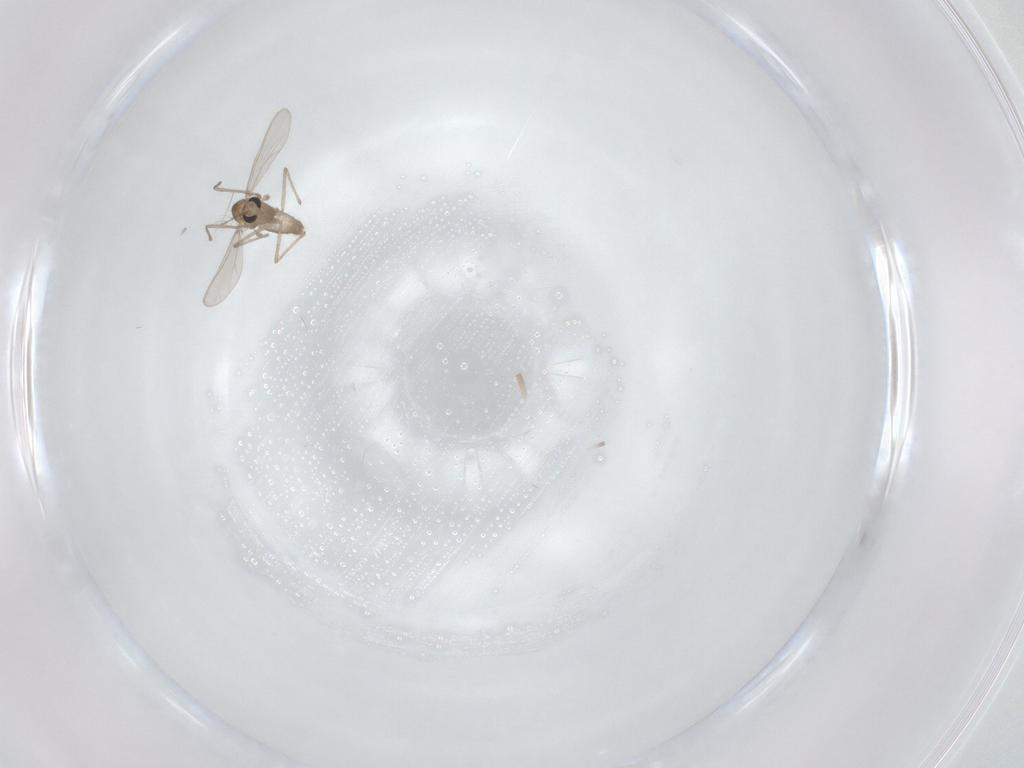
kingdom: Animalia
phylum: Arthropoda
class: Insecta
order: Diptera
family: Chironomidae
